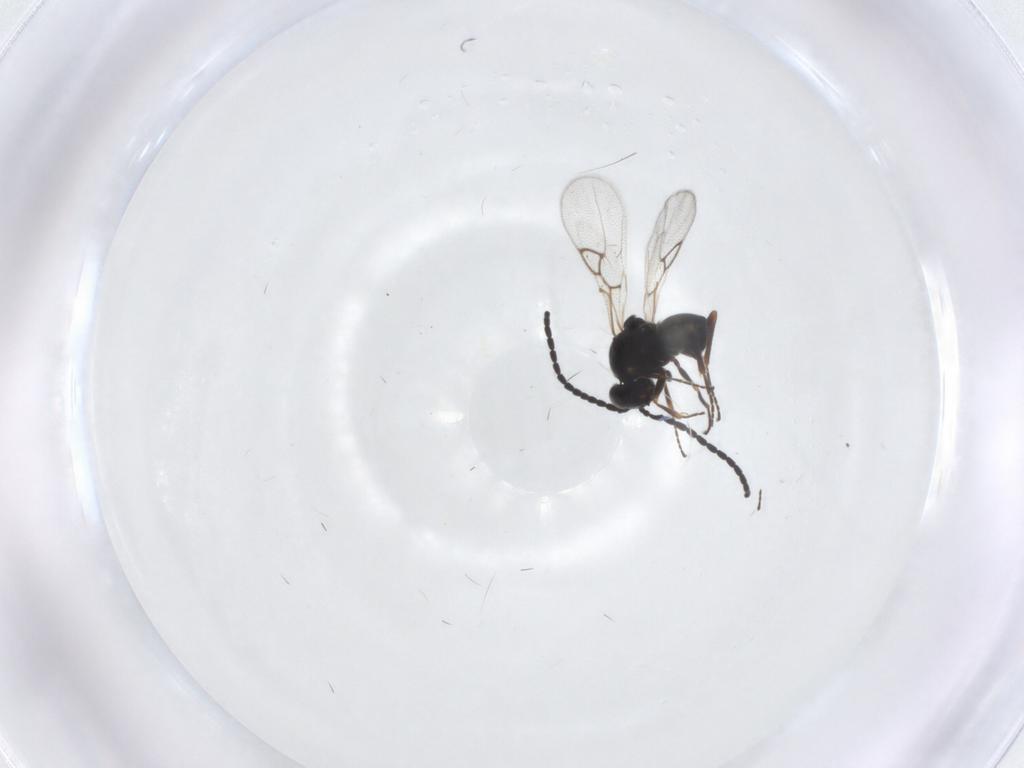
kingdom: Animalia
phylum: Arthropoda
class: Insecta
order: Hymenoptera
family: Figitidae
